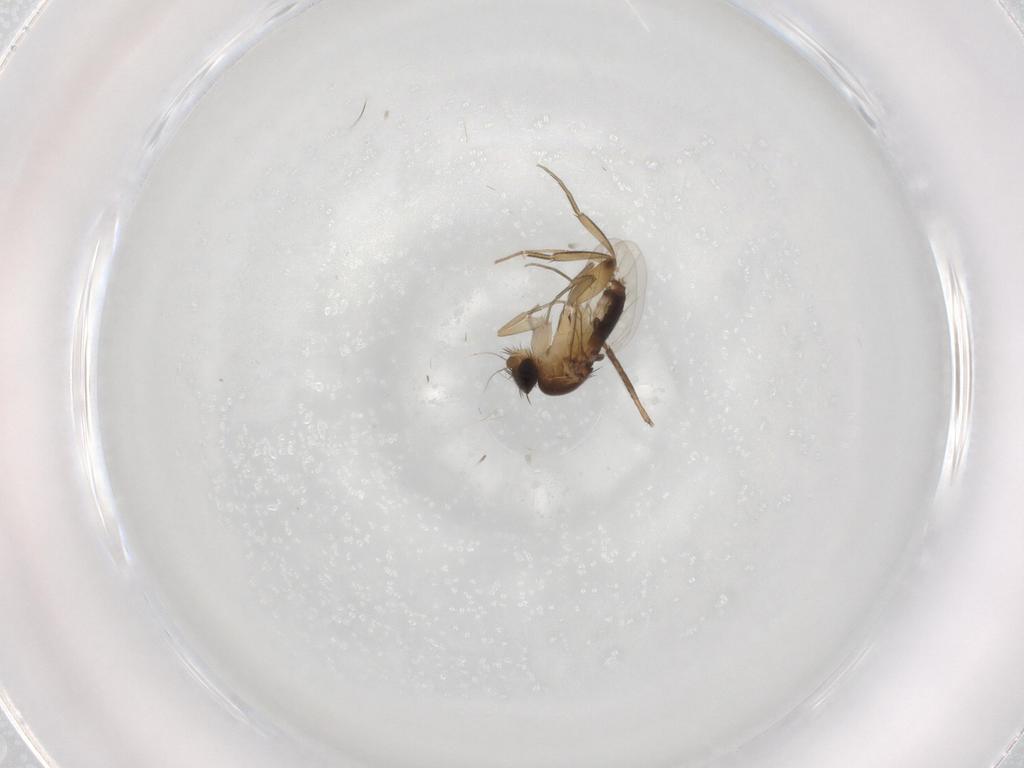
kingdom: Animalia
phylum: Arthropoda
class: Insecta
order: Diptera
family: Phoridae
